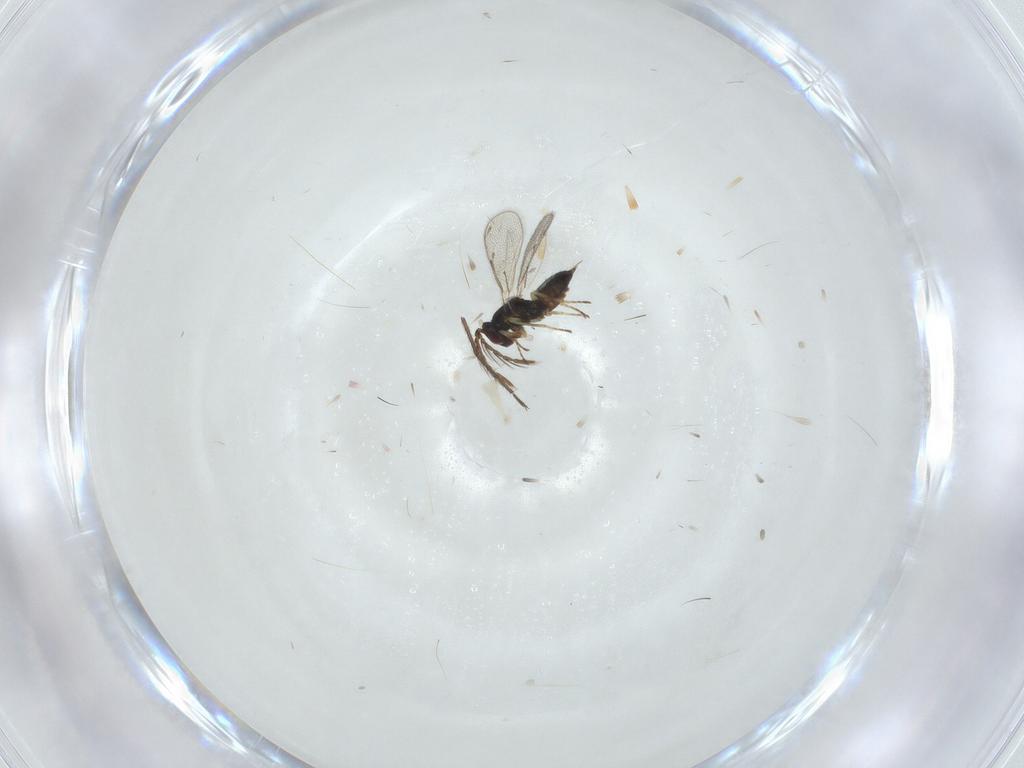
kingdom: Animalia
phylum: Arthropoda
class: Insecta
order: Hymenoptera
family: Eulophidae
